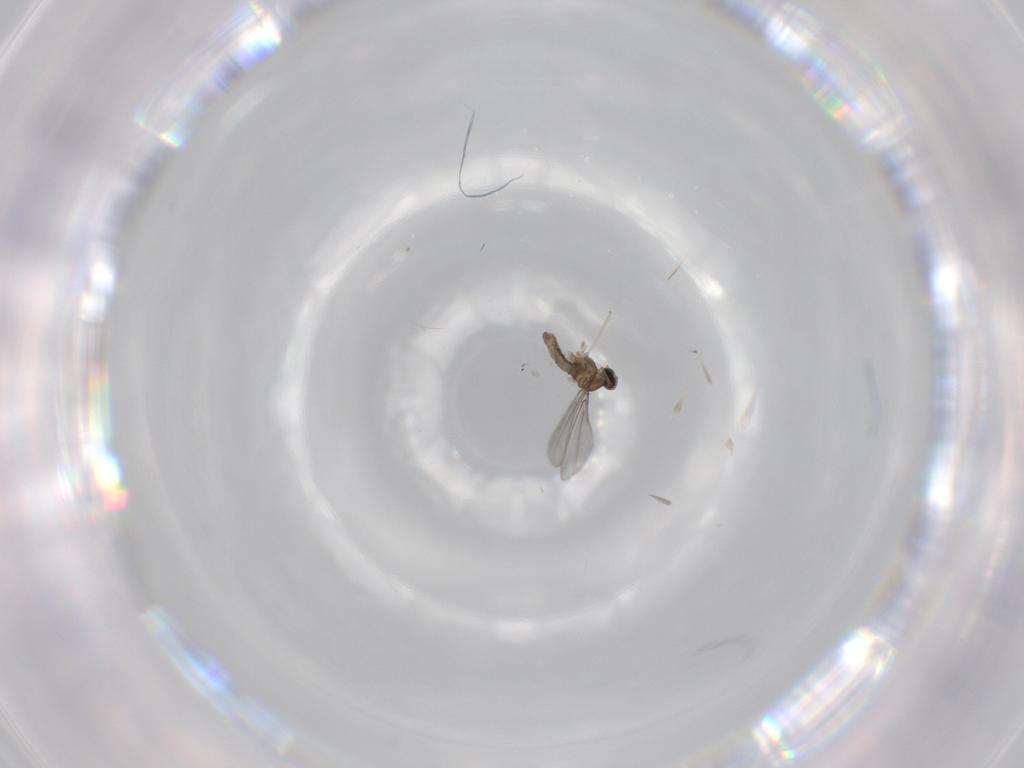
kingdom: Animalia
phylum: Arthropoda
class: Insecta
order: Diptera
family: Cecidomyiidae
